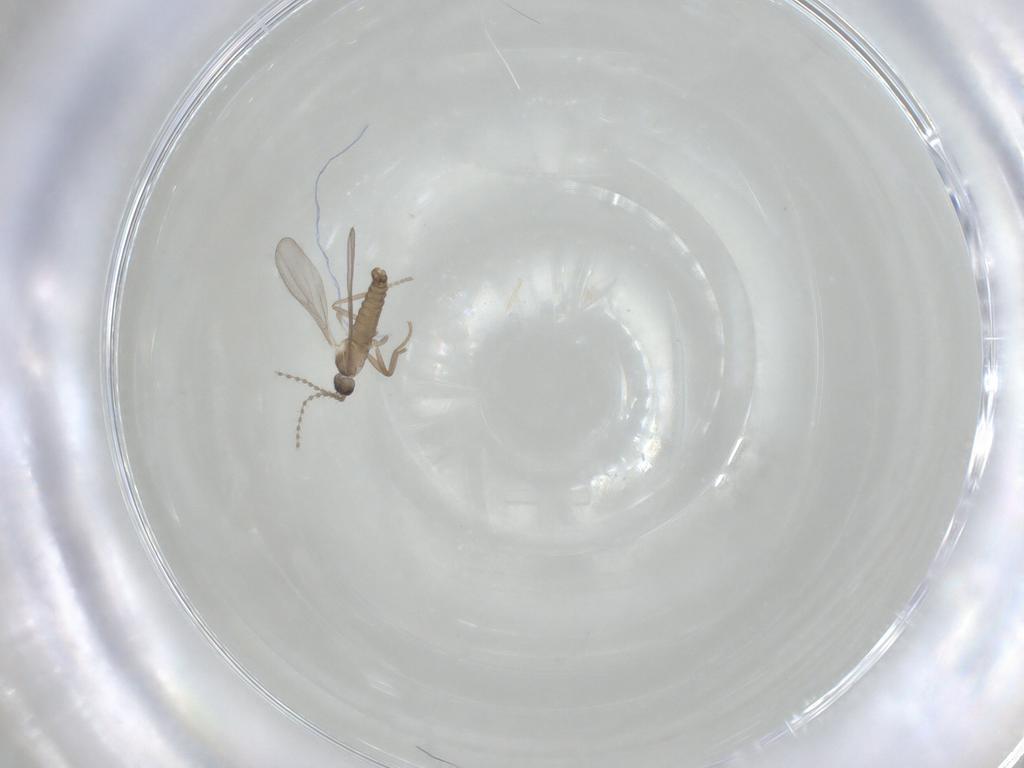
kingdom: Animalia
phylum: Arthropoda
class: Insecta
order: Diptera
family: Cecidomyiidae
